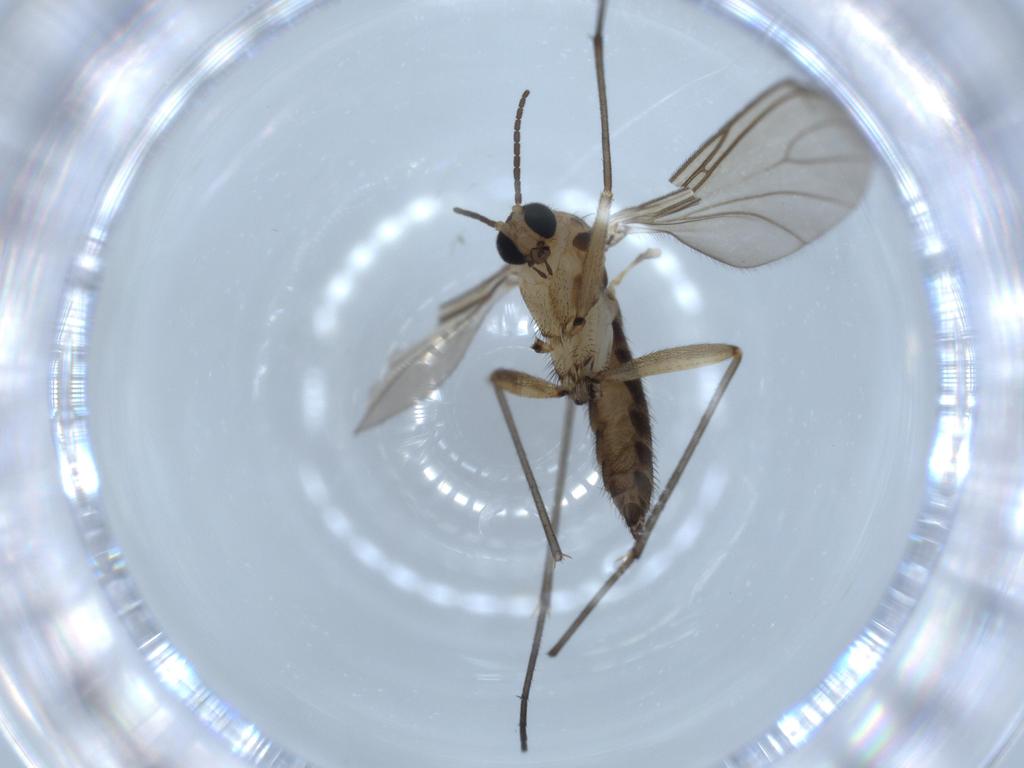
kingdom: Animalia
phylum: Arthropoda
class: Insecta
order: Diptera
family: Sciaridae
